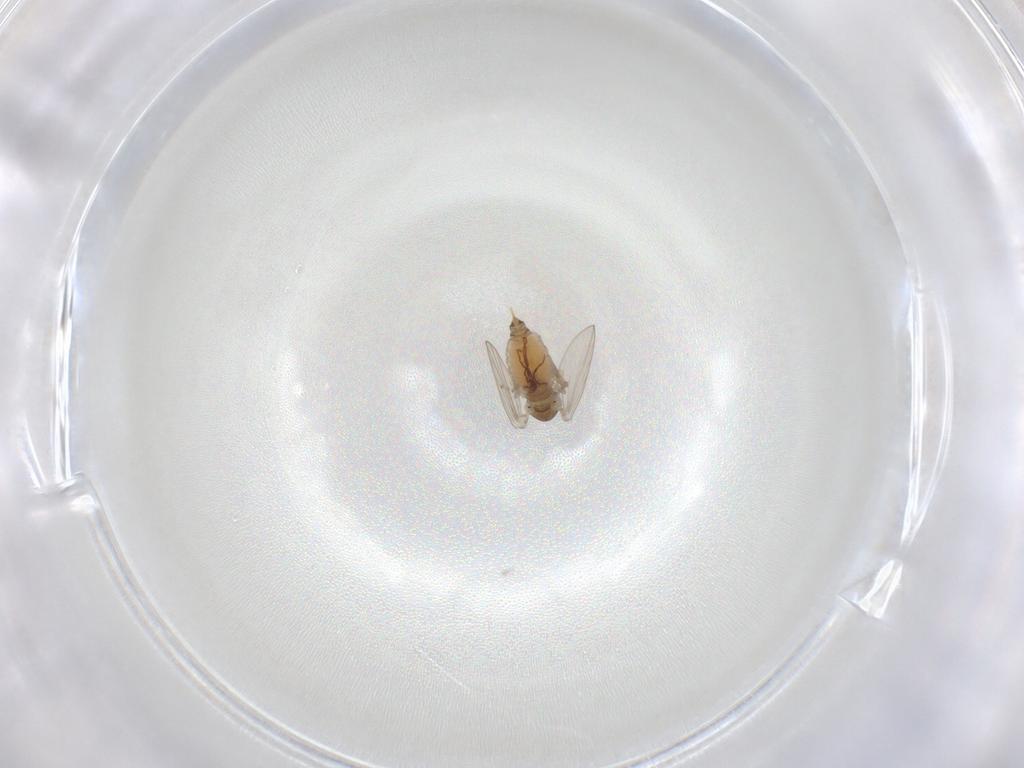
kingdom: Animalia
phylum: Arthropoda
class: Insecta
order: Diptera
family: Psychodidae
